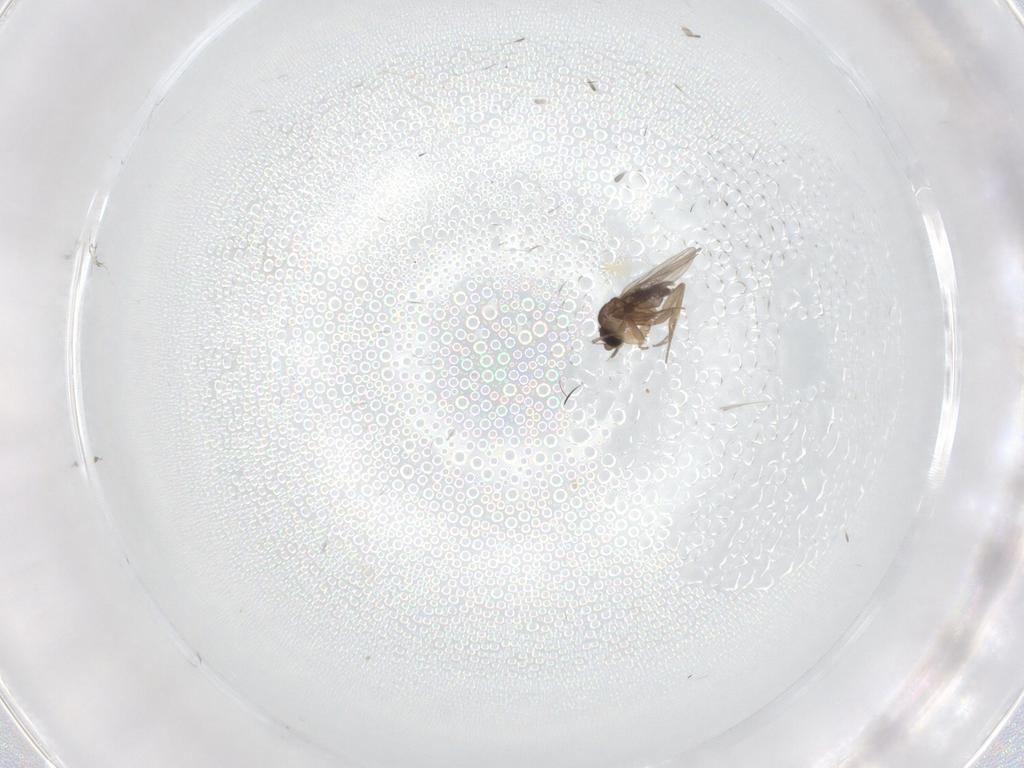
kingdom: Animalia
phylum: Arthropoda
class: Insecta
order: Diptera
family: Phoridae
